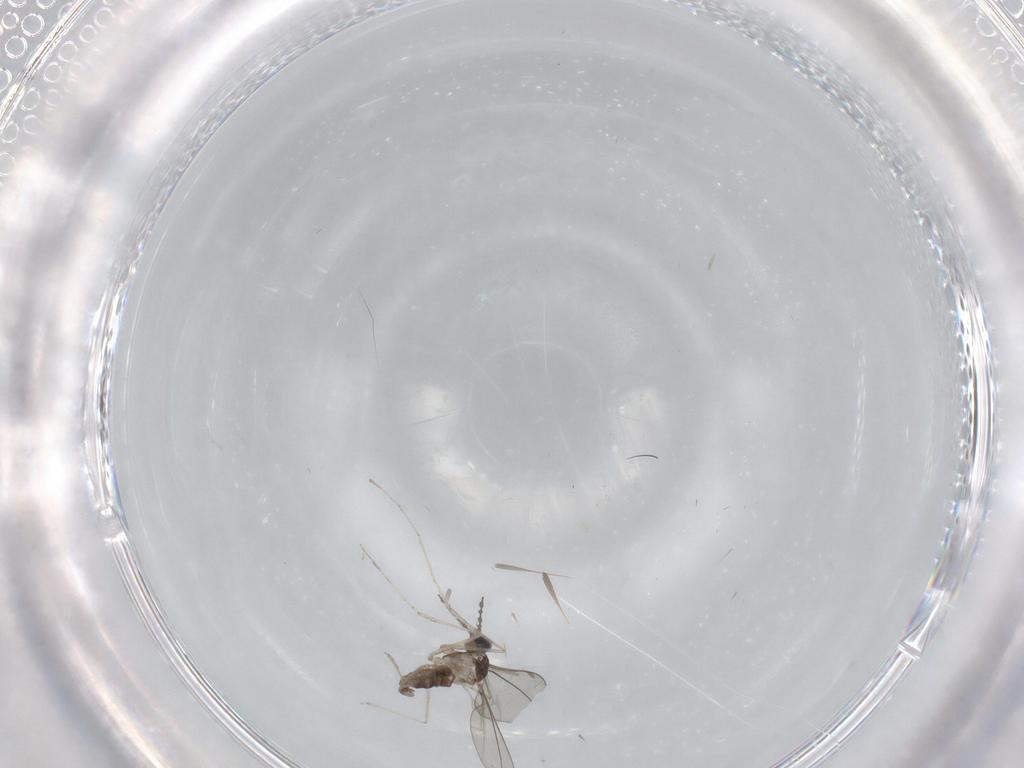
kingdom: Animalia
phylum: Arthropoda
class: Insecta
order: Diptera
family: Cecidomyiidae
